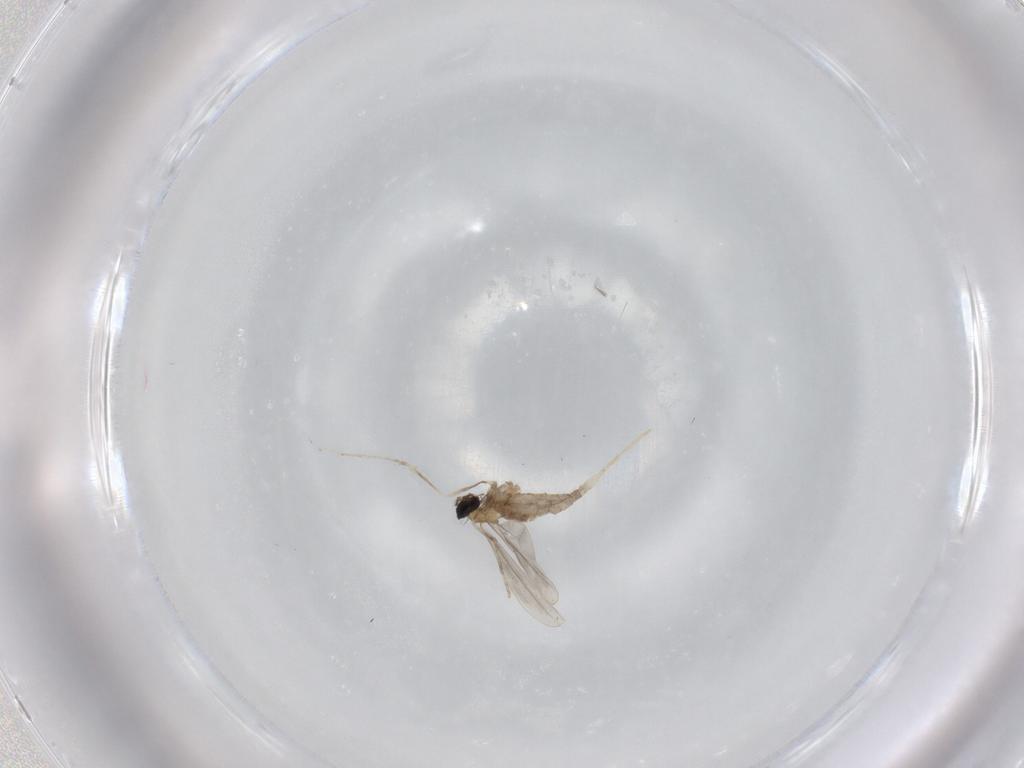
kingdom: Animalia
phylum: Arthropoda
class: Insecta
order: Diptera
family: Cecidomyiidae
